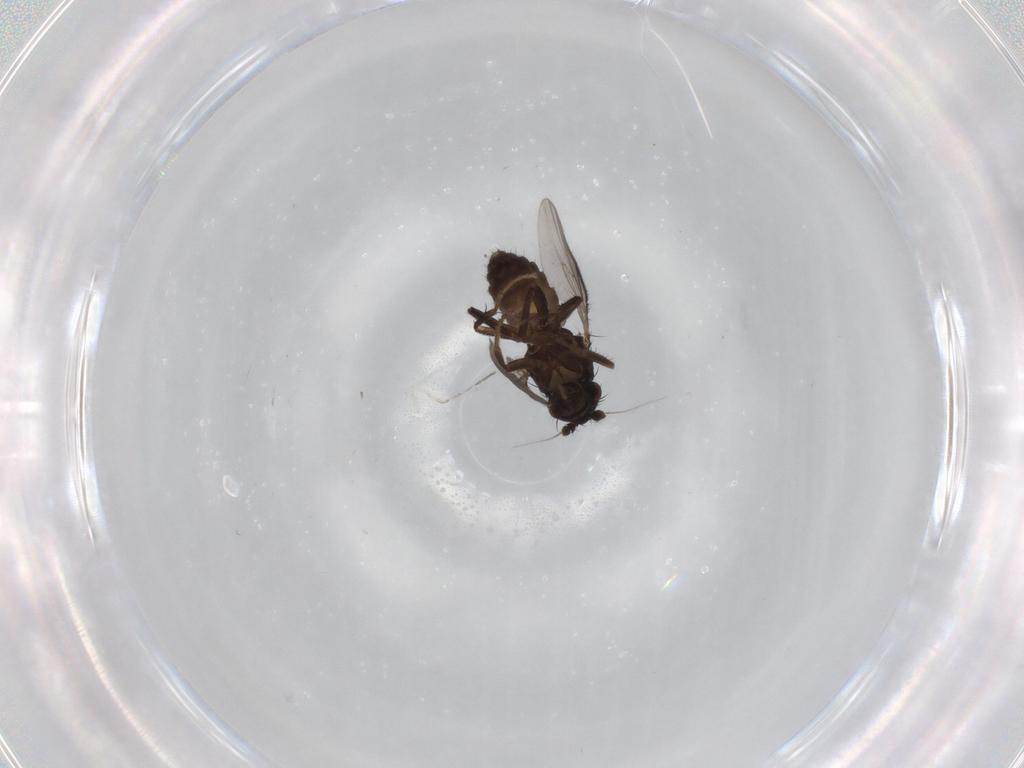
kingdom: Animalia
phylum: Arthropoda
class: Insecta
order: Diptera
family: Sphaeroceridae
